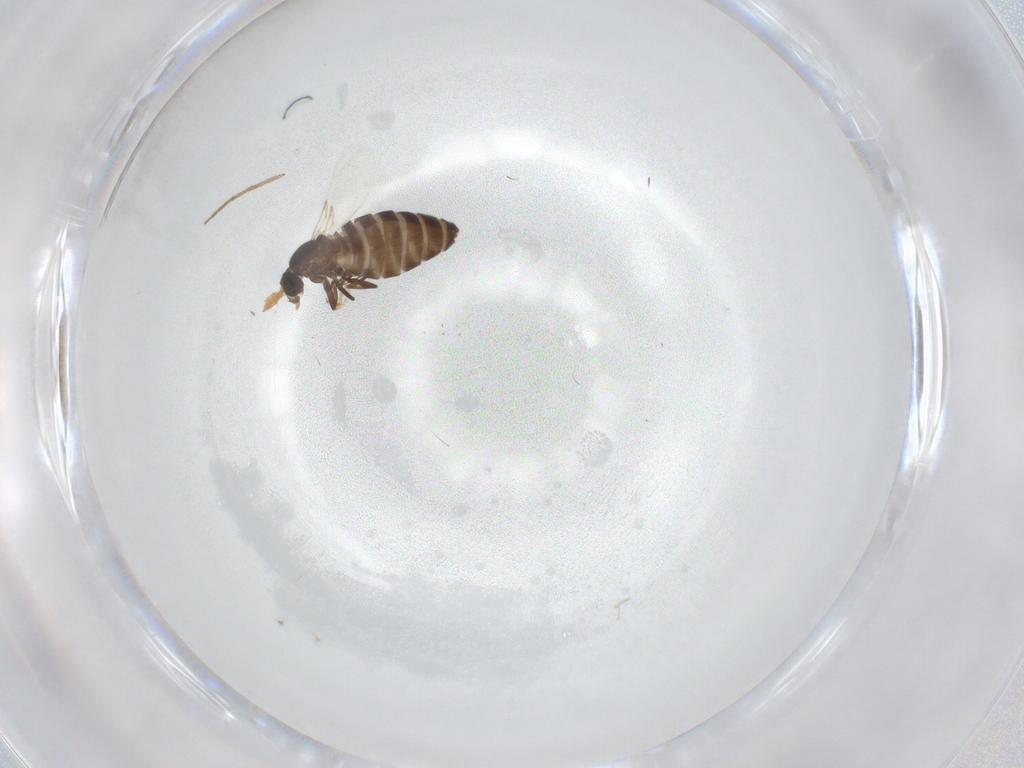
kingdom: Animalia
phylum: Arthropoda
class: Insecta
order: Diptera
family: Scatopsidae
